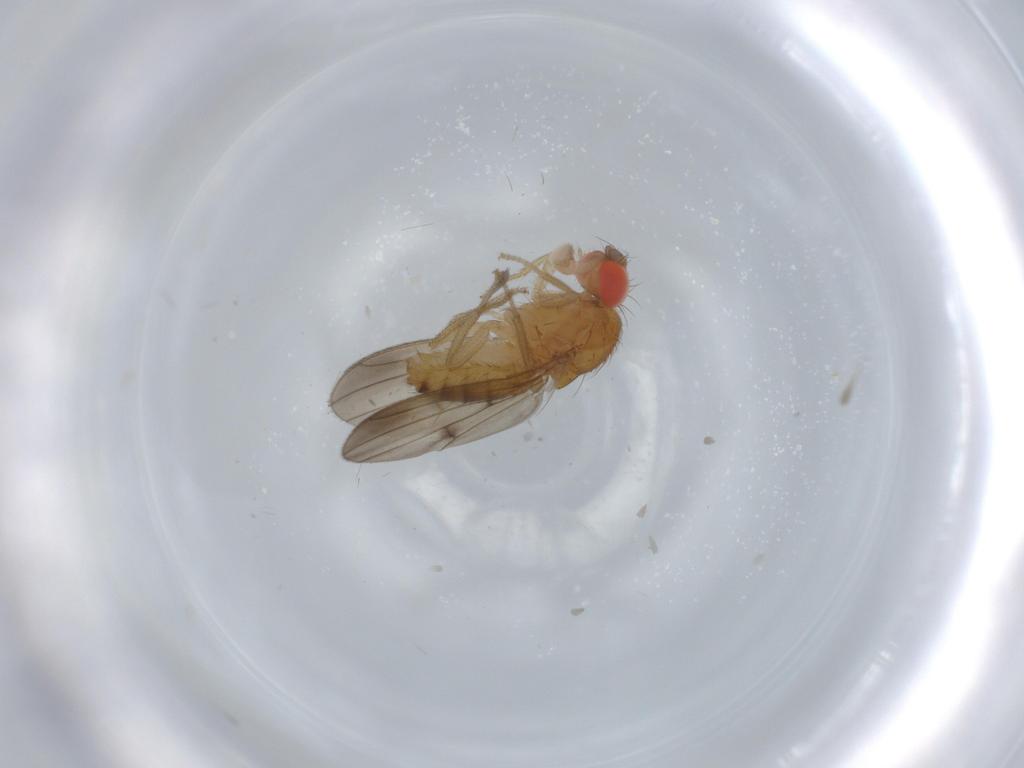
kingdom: Animalia
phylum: Arthropoda
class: Insecta
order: Diptera
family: Drosophilidae
